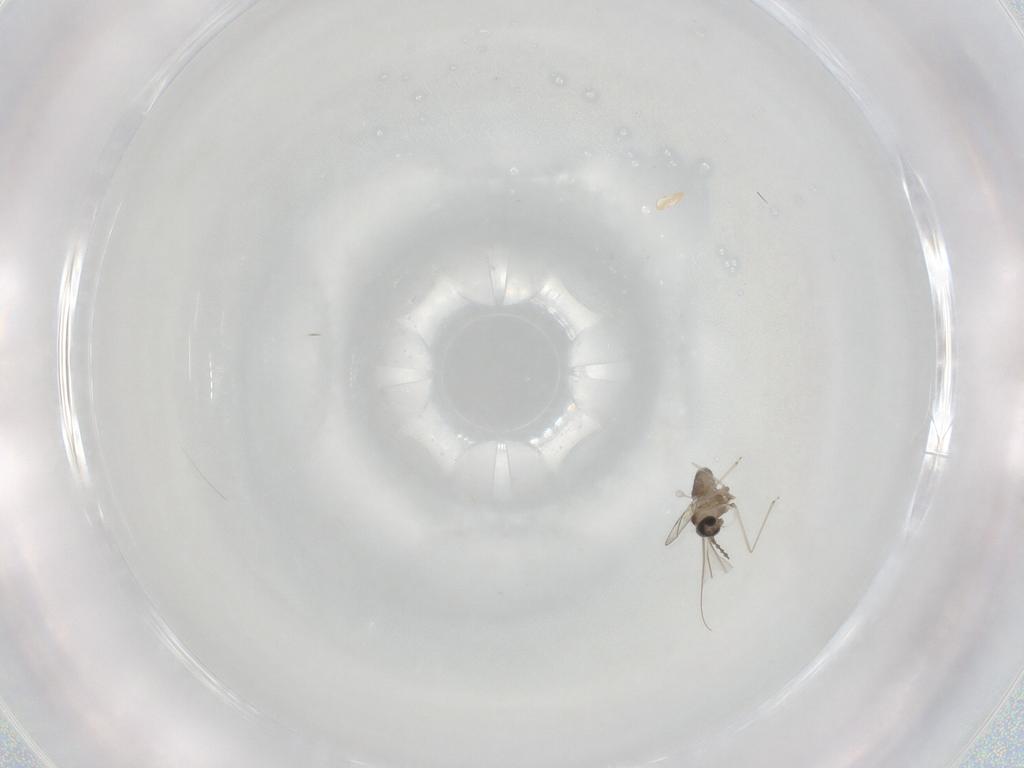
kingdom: Animalia
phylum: Arthropoda
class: Insecta
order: Diptera
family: Cecidomyiidae
